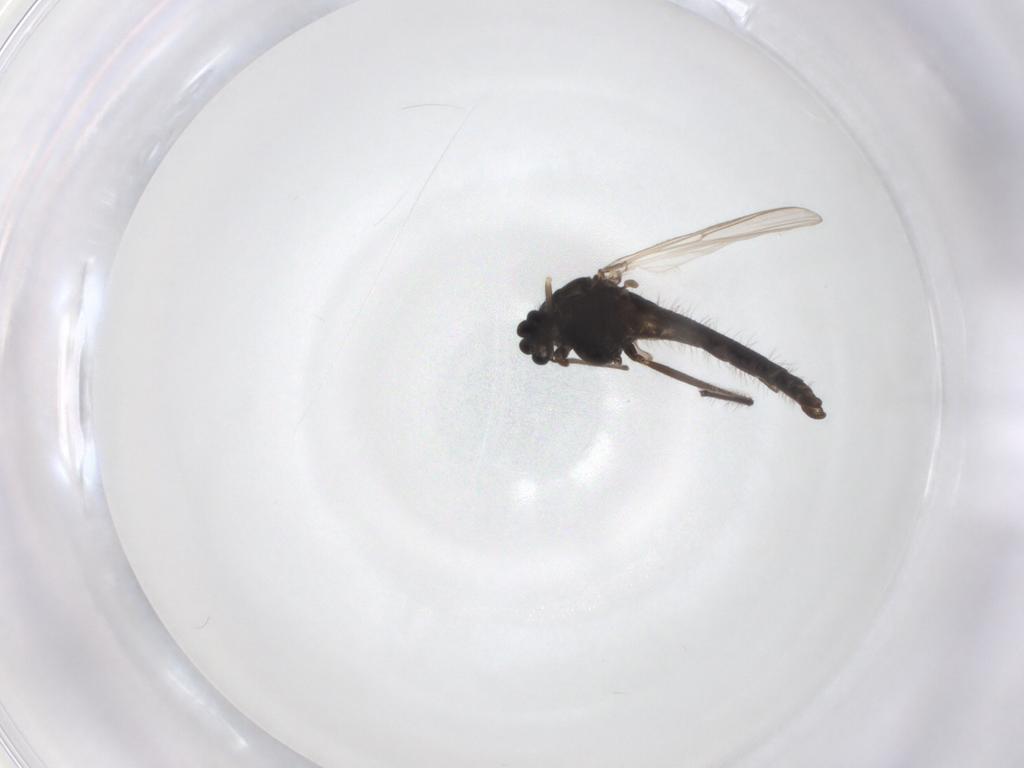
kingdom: Animalia
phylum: Arthropoda
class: Insecta
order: Diptera
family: Chironomidae
